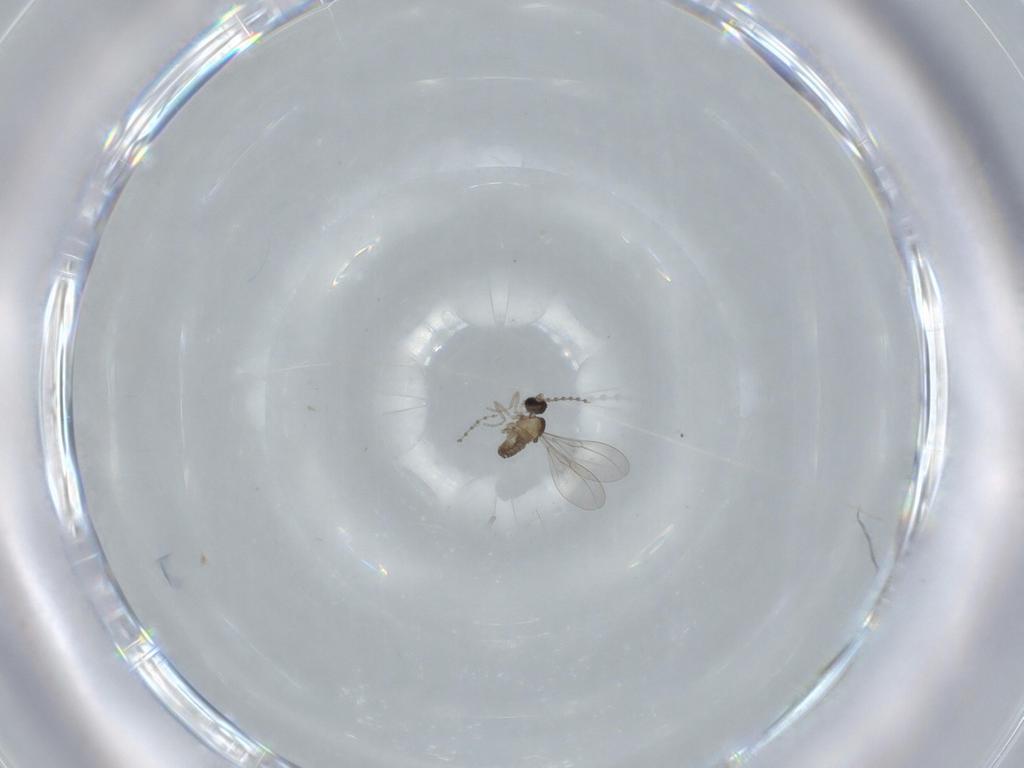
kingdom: Animalia
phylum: Arthropoda
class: Insecta
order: Diptera
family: Cecidomyiidae
